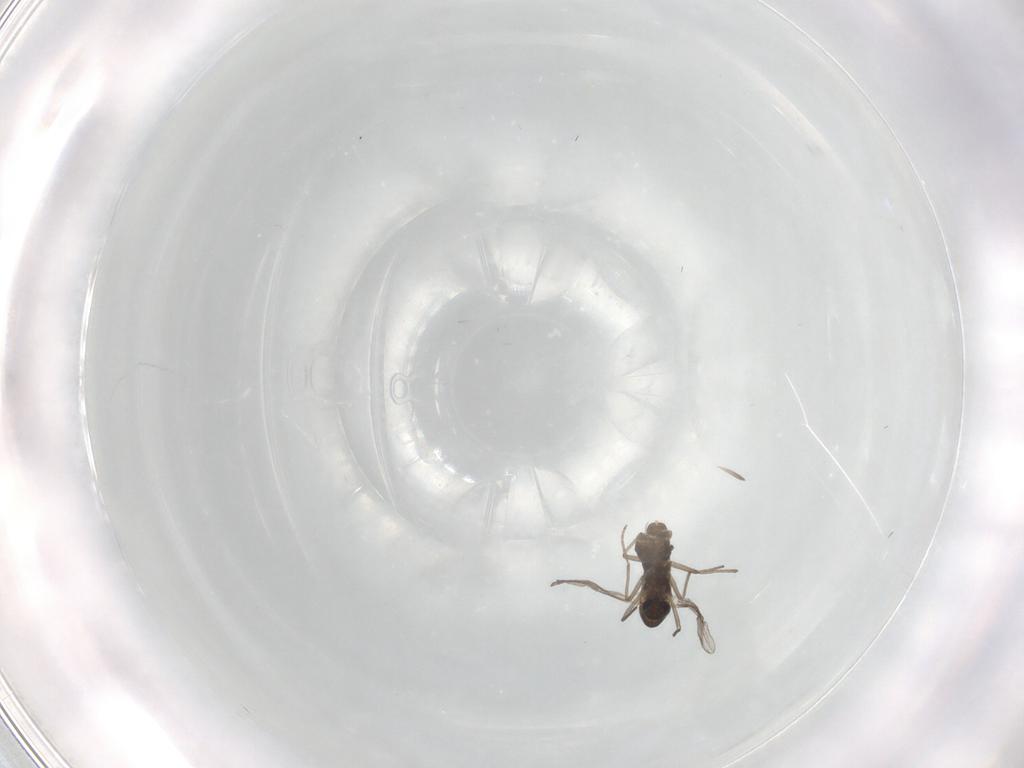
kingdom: Animalia
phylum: Arthropoda
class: Insecta
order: Diptera
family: Chironomidae
